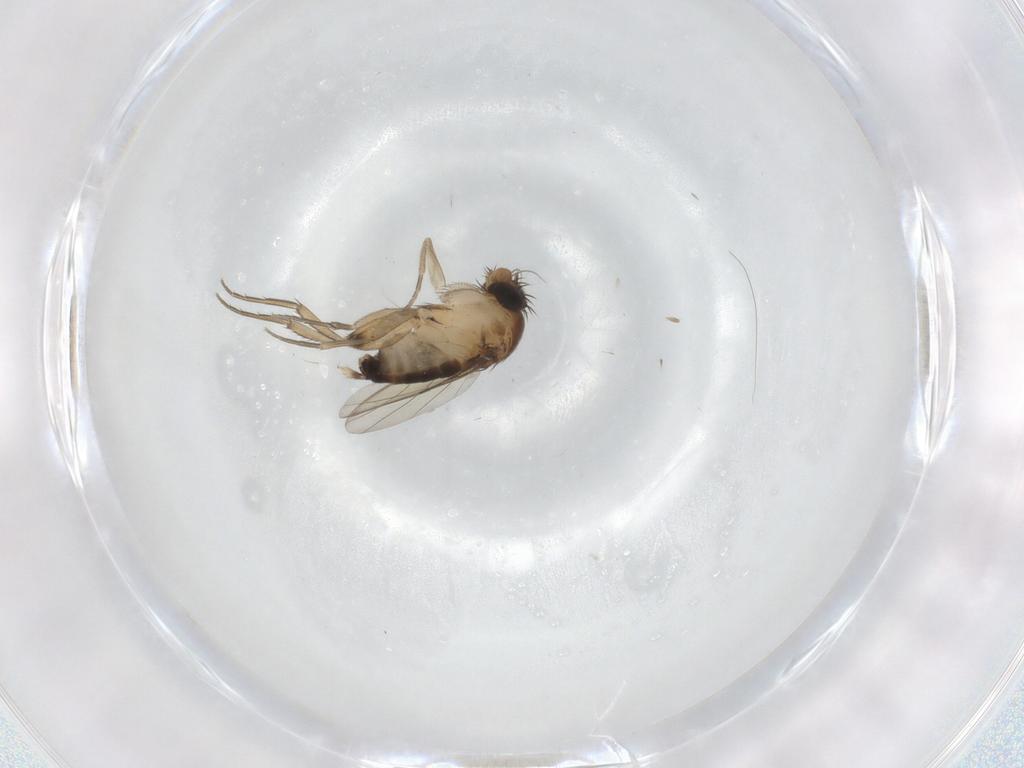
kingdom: Animalia
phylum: Arthropoda
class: Insecta
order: Diptera
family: Phoridae
